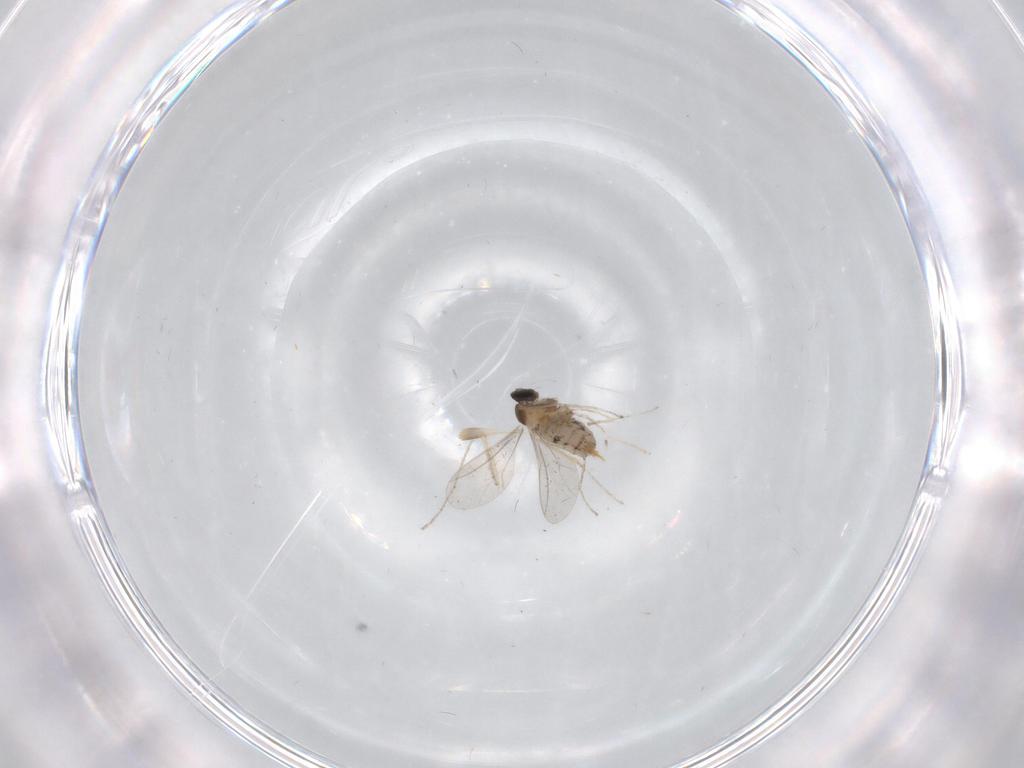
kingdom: Animalia
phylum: Arthropoda
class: Insecta
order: Diptera
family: Cecidomyiidae
